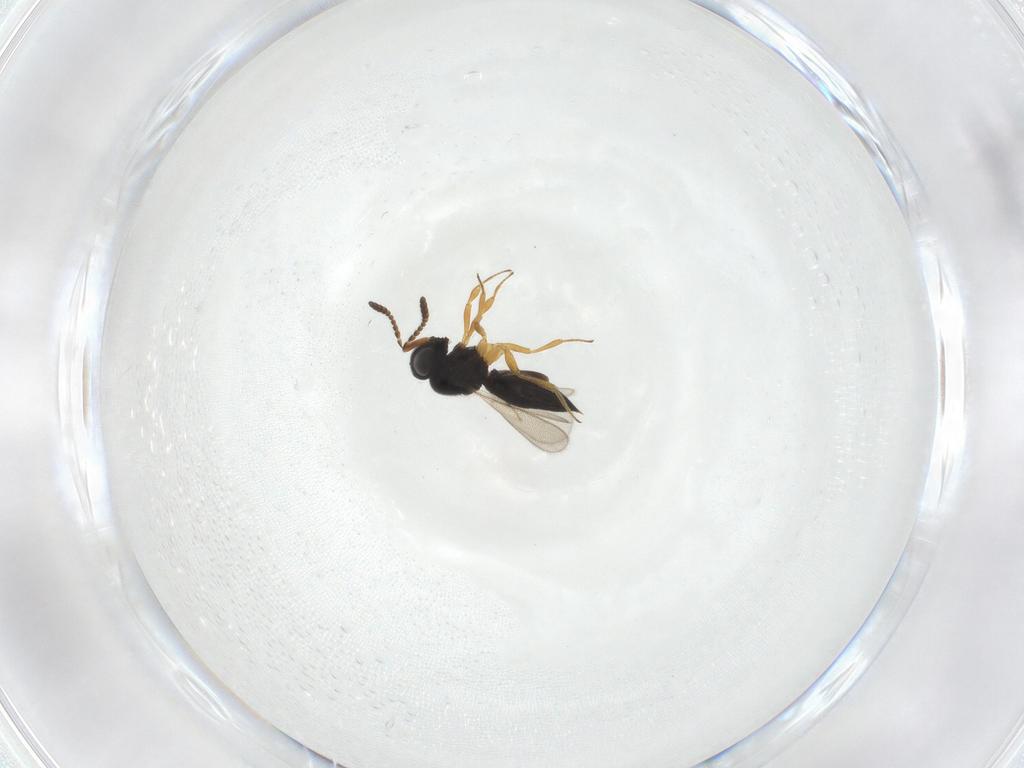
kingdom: Animalia
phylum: Arthropoda
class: Insecta
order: Hymenoptera
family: Scelionidae
